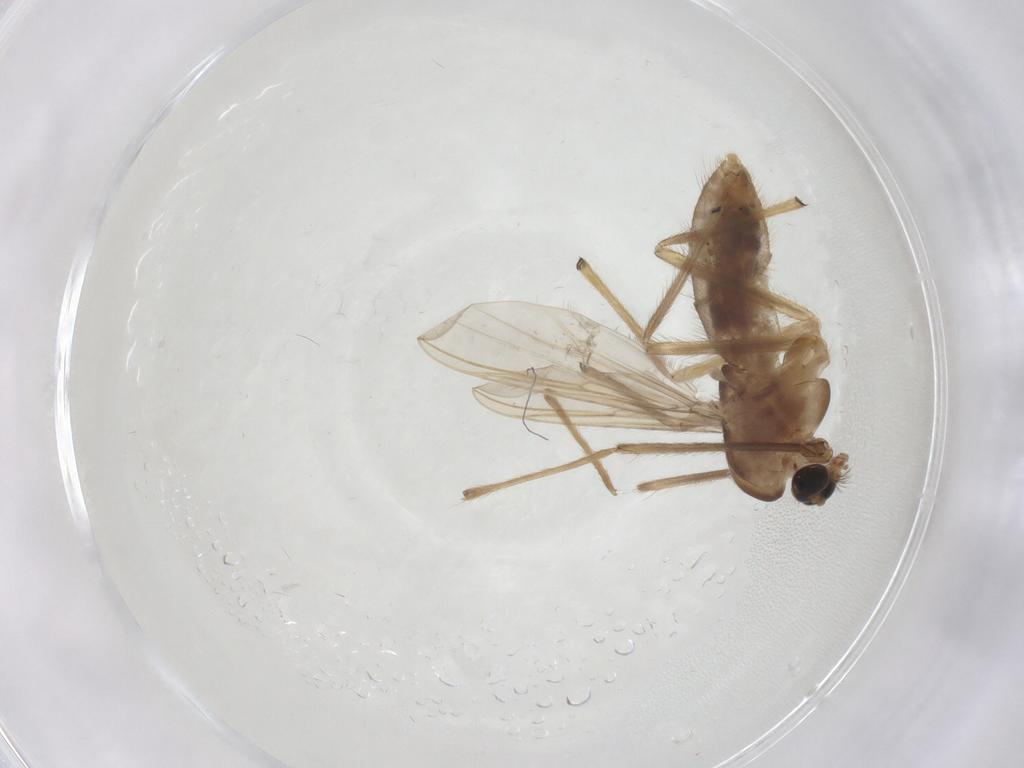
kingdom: Animalia
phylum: Arthropoda
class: Insecta
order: Diptera
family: Chironomidae
